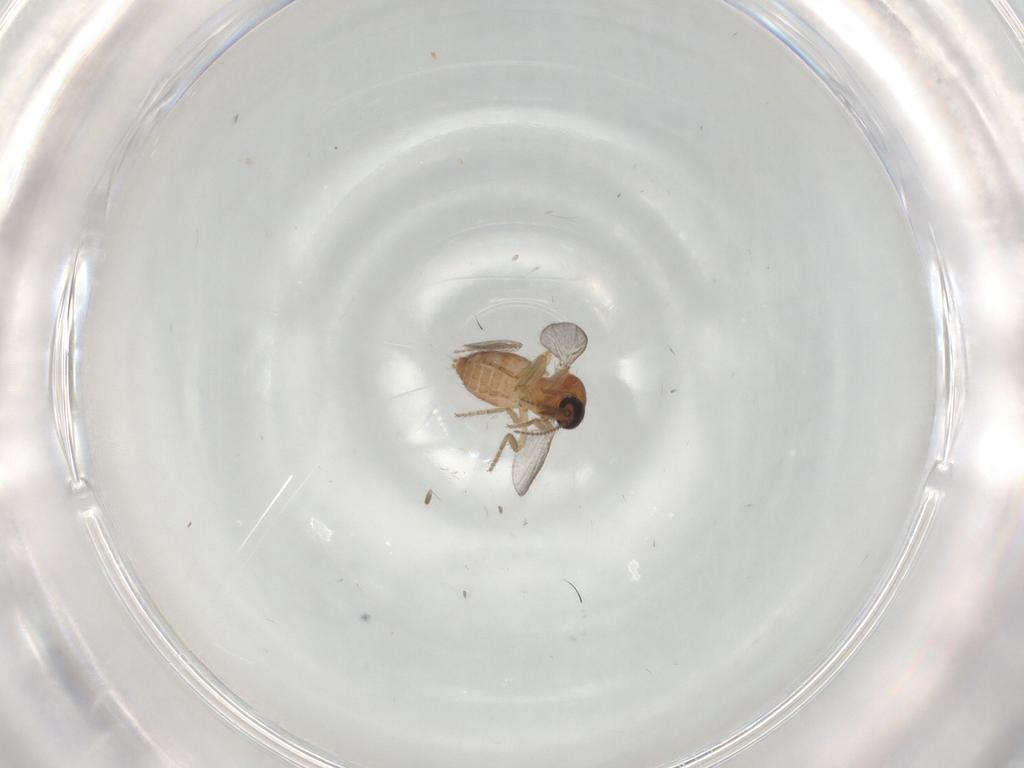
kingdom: Animalia
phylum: Arthropoda
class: Insecta
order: Diptera
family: Ceratopogonidae
